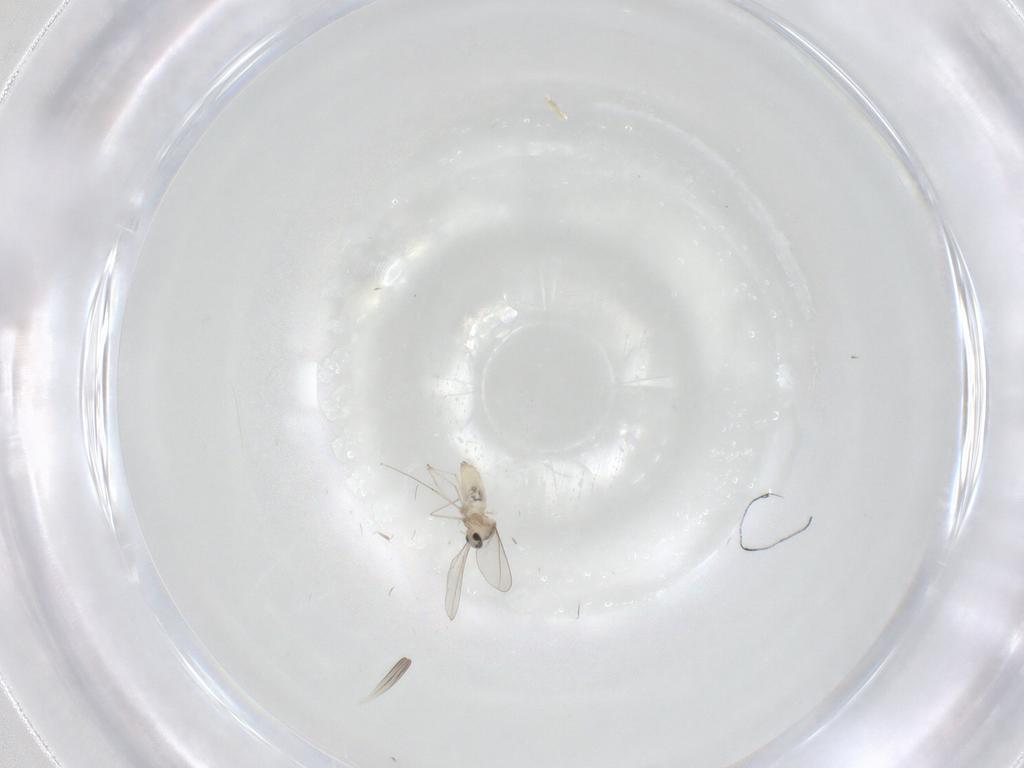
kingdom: Animalia
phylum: Arthropoda
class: Insecta
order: Diptera
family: Cecidomyiidae
